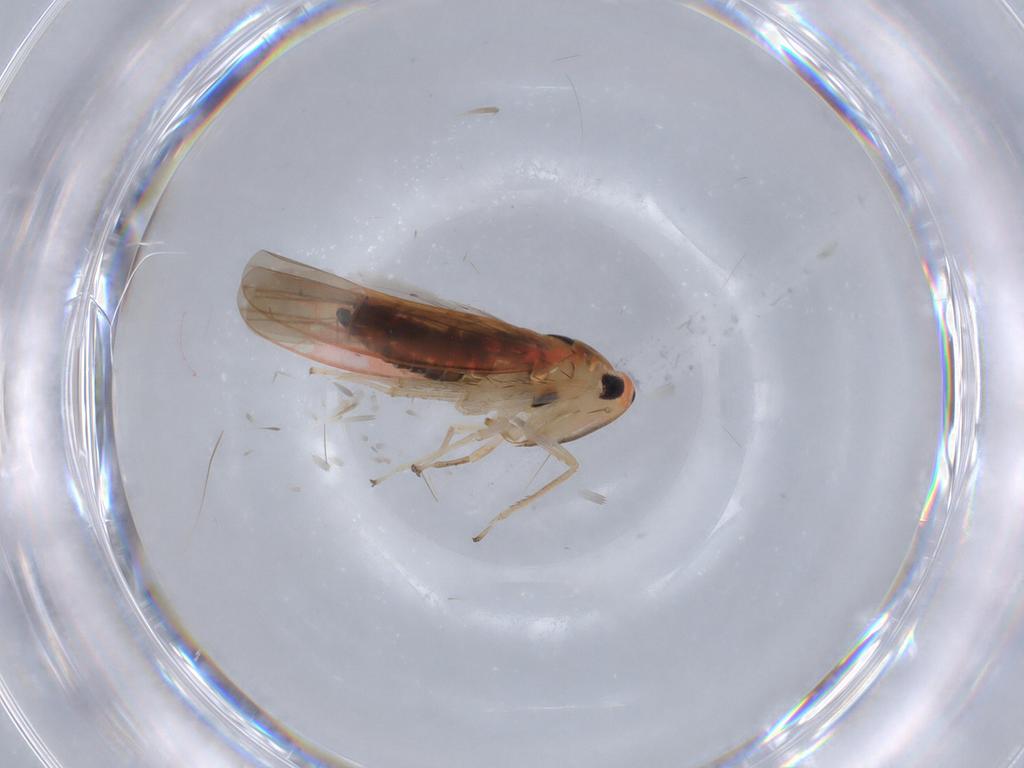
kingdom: Animalia
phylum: Arthropoda
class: Insecta
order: Hemiptera
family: Cicadellidae
